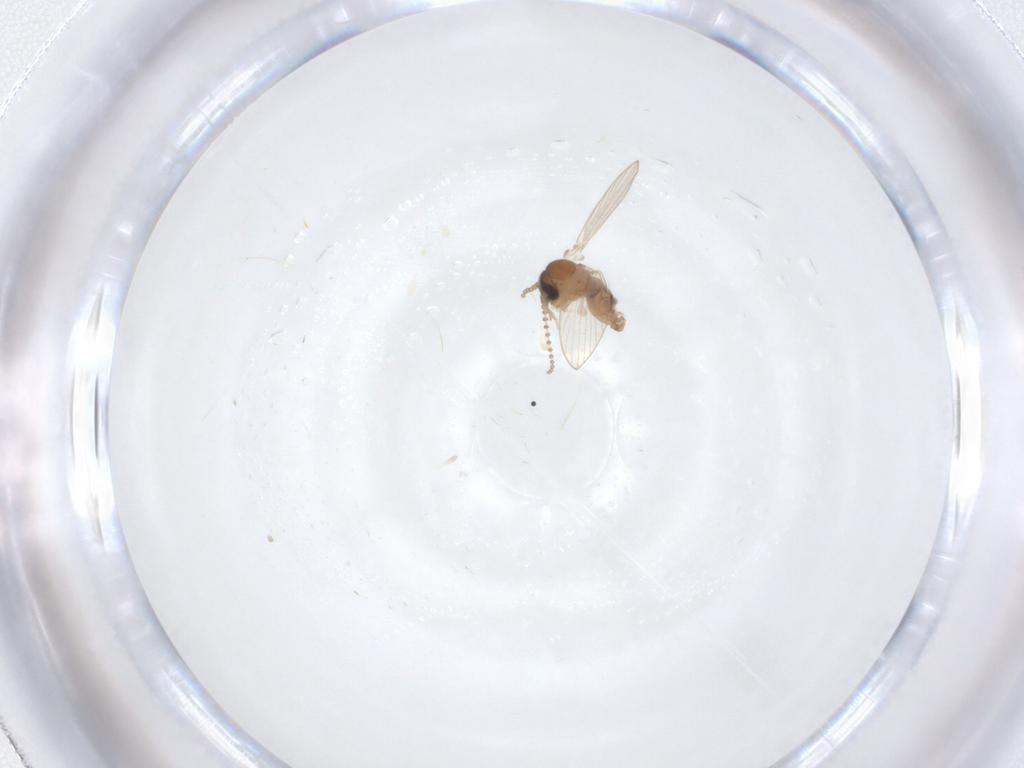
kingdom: Animalia
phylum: Arthropoda
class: Insecta
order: Diptera
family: Psychodidae
